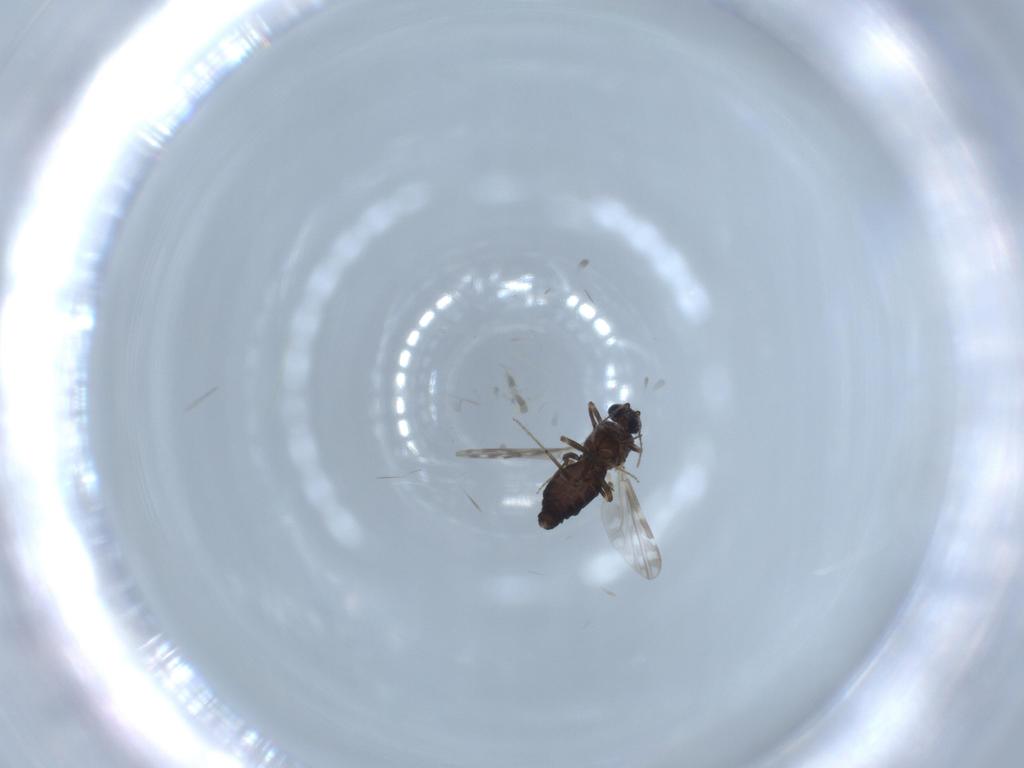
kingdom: Animalia
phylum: Arthropoda
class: Insecta
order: Diptera
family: Ceratopogonidae
